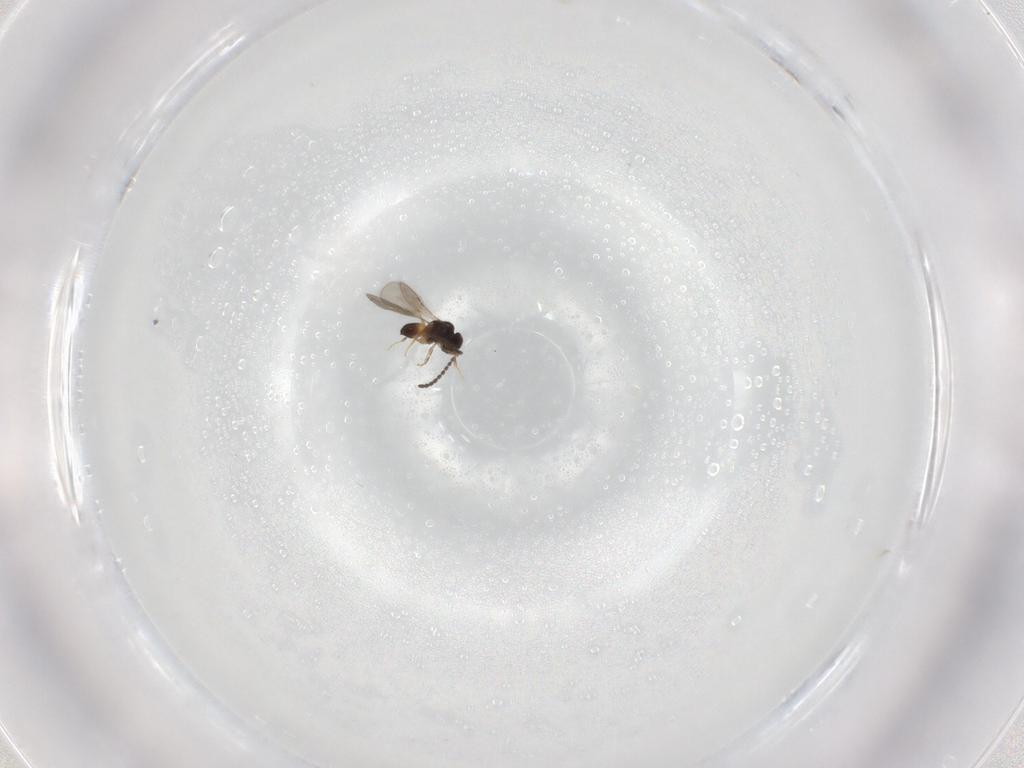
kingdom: Animalia
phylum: Arthropoda
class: Insecta
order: Hymenoptera
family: Ceraphronidae
